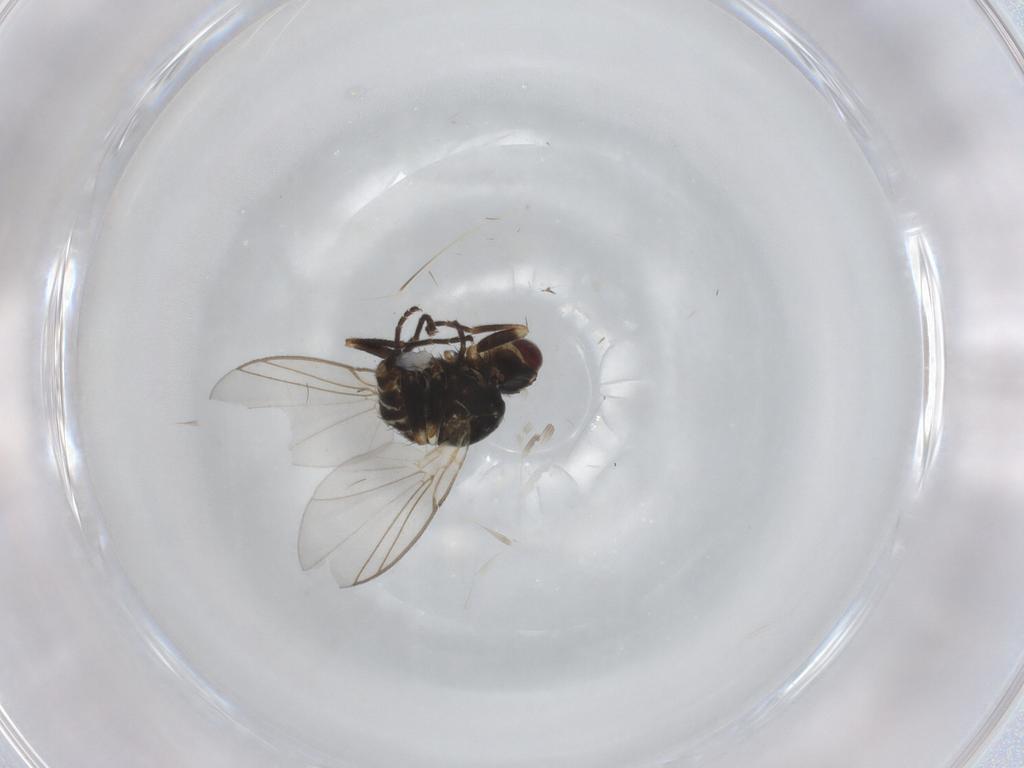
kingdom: Animalia
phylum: Arthropoda
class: Insecta
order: Diptera
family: Agromyzidae
